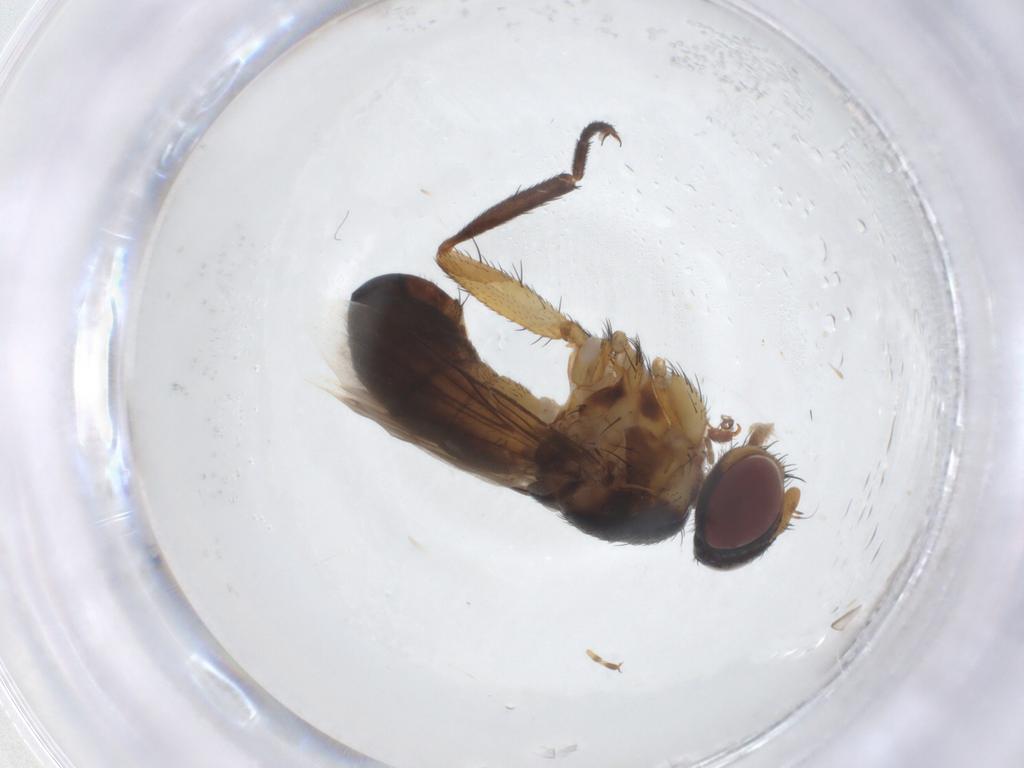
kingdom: Animalia
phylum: Arthropoda
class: Insecta
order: Diptera
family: Tachinidae
